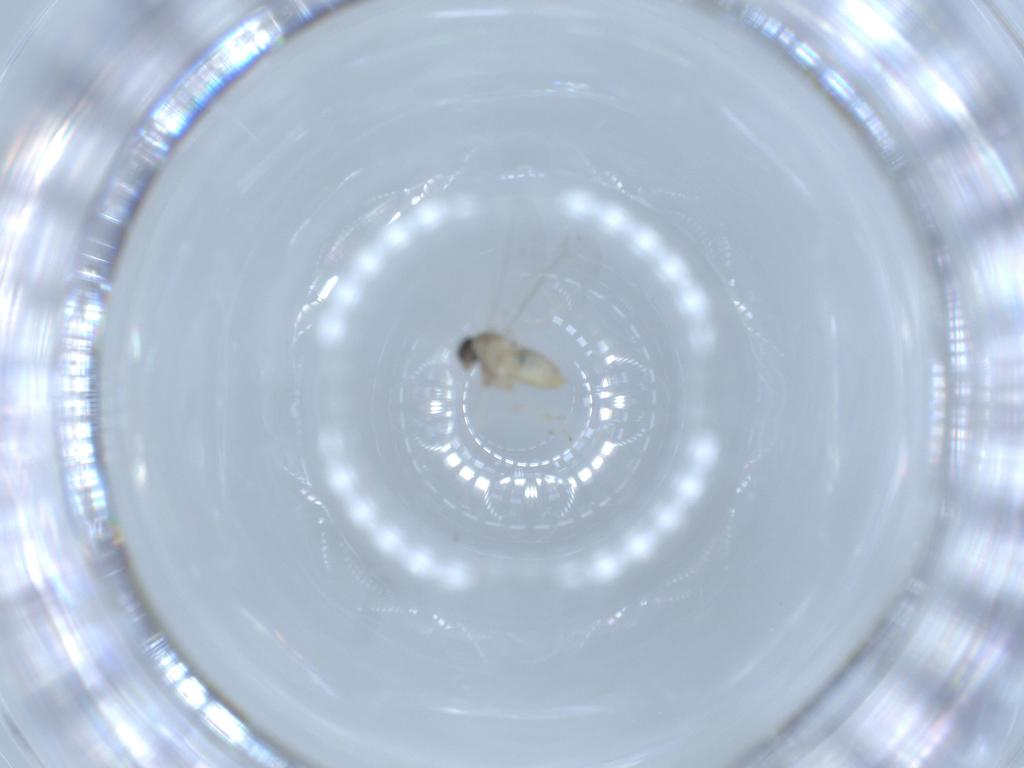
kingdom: Animalia
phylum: Arthropoda
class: Insecta
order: Diptera
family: Cecidomyiidae
